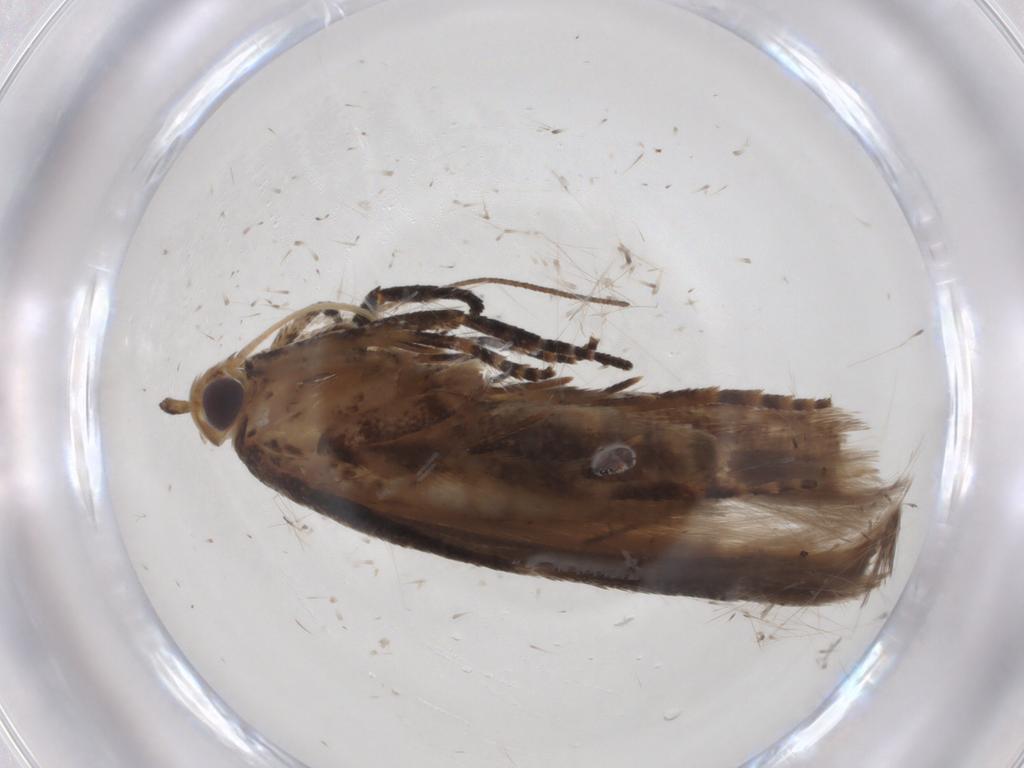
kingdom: Animalia
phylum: Arthropoda
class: Insecta
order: Lepidoptera
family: Gelechiidae
